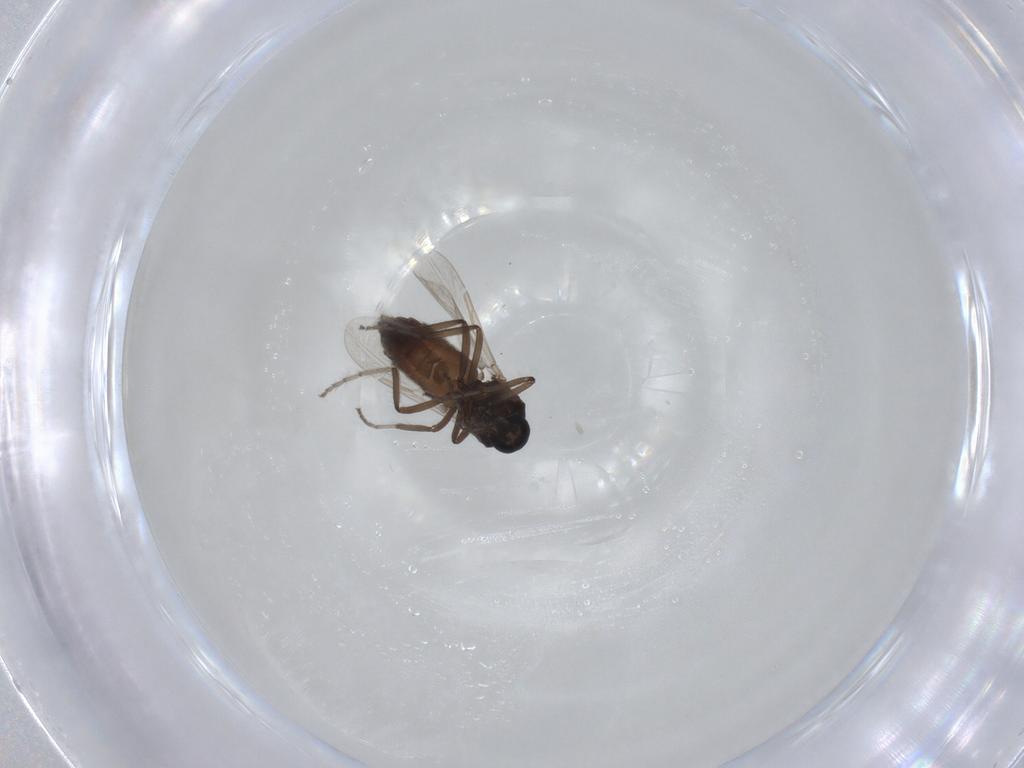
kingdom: Animalia
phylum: Arthropoda
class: Insecta
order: Diptera
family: Ceratopogonidae
